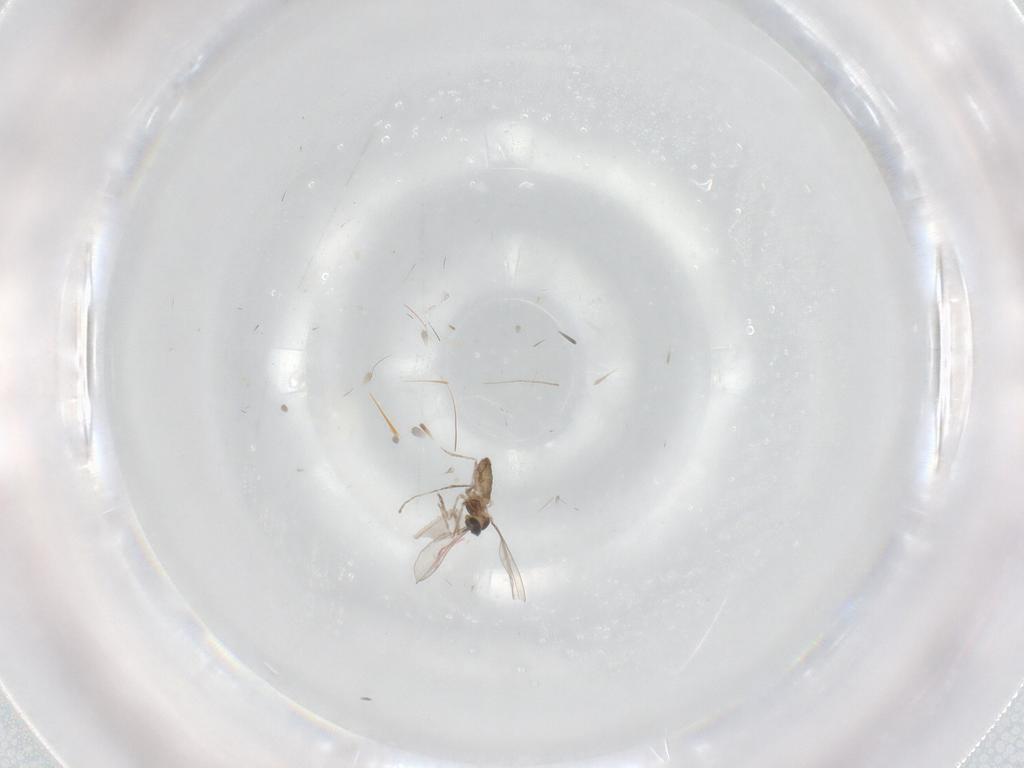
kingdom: Animalia
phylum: Arthropoda
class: Insecta
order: Diptera
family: Cecidomyiidae
